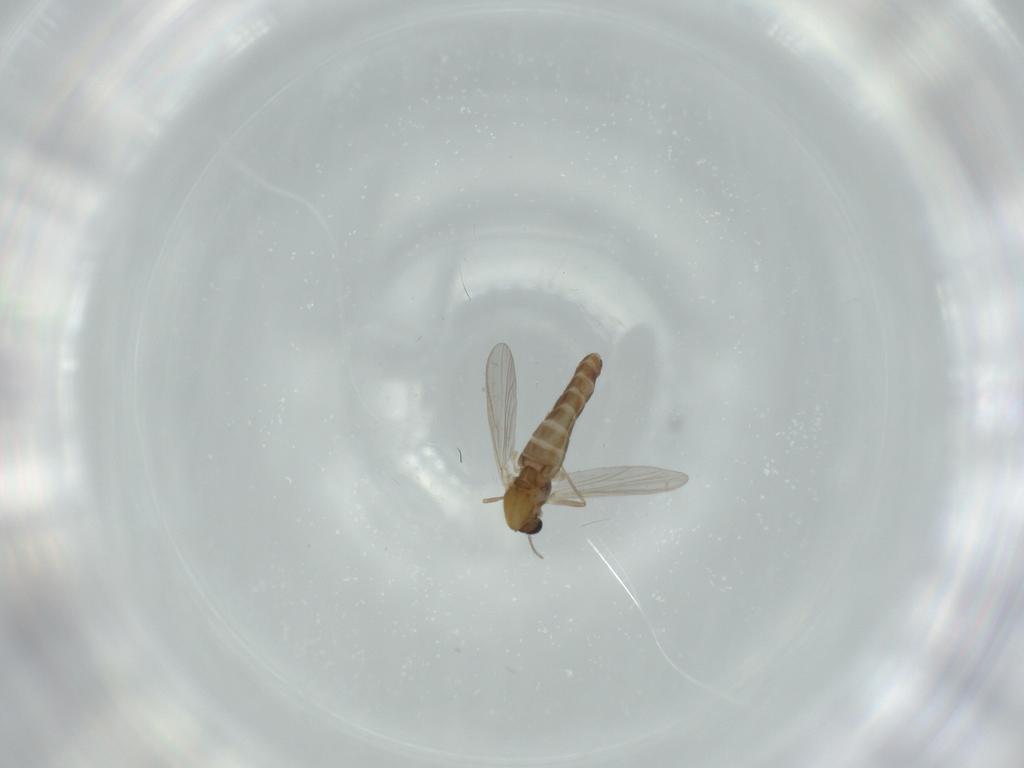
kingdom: Animalia
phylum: Arthropoda
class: Insecta
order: Diptera
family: Chironomidae
